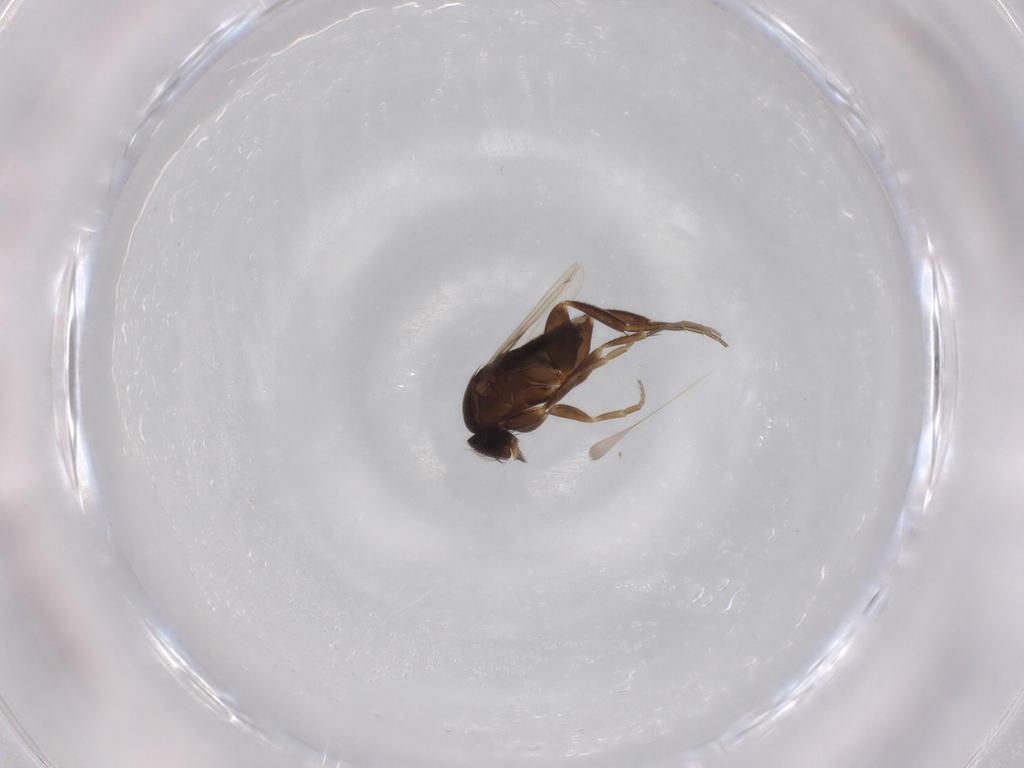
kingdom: Animalia
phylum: Arthropoda
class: Insecta
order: Diptera
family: Phoridae
